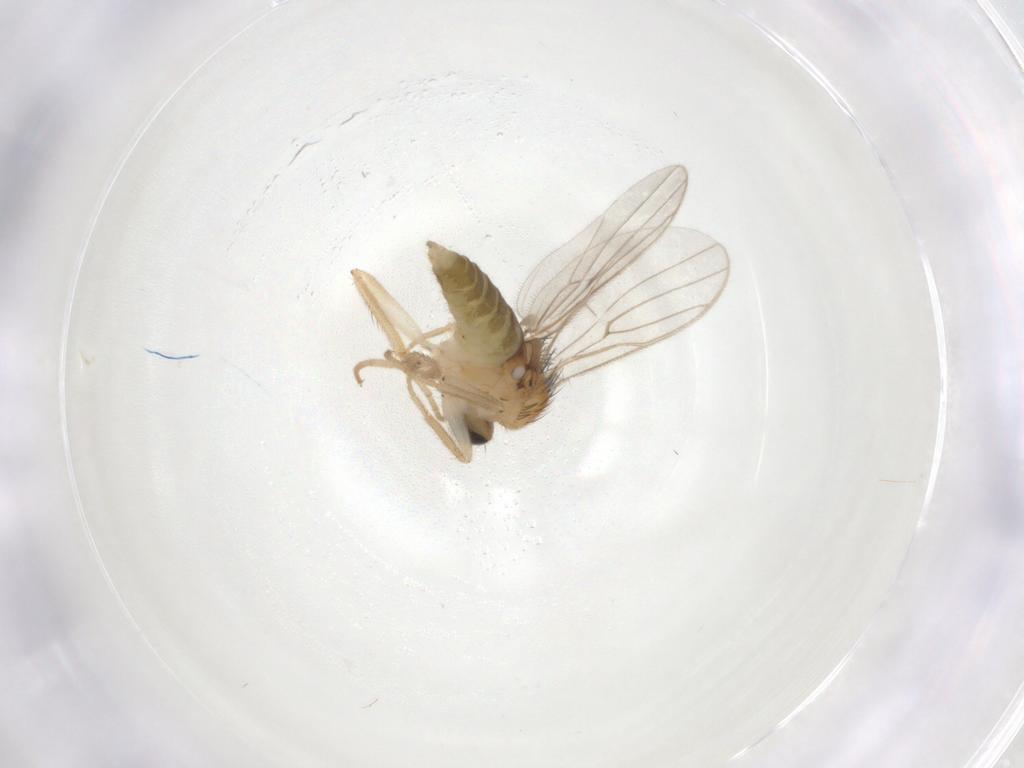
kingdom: Animalia
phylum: Arthropoda
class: Insecta
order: Diptera
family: Hybotidae
